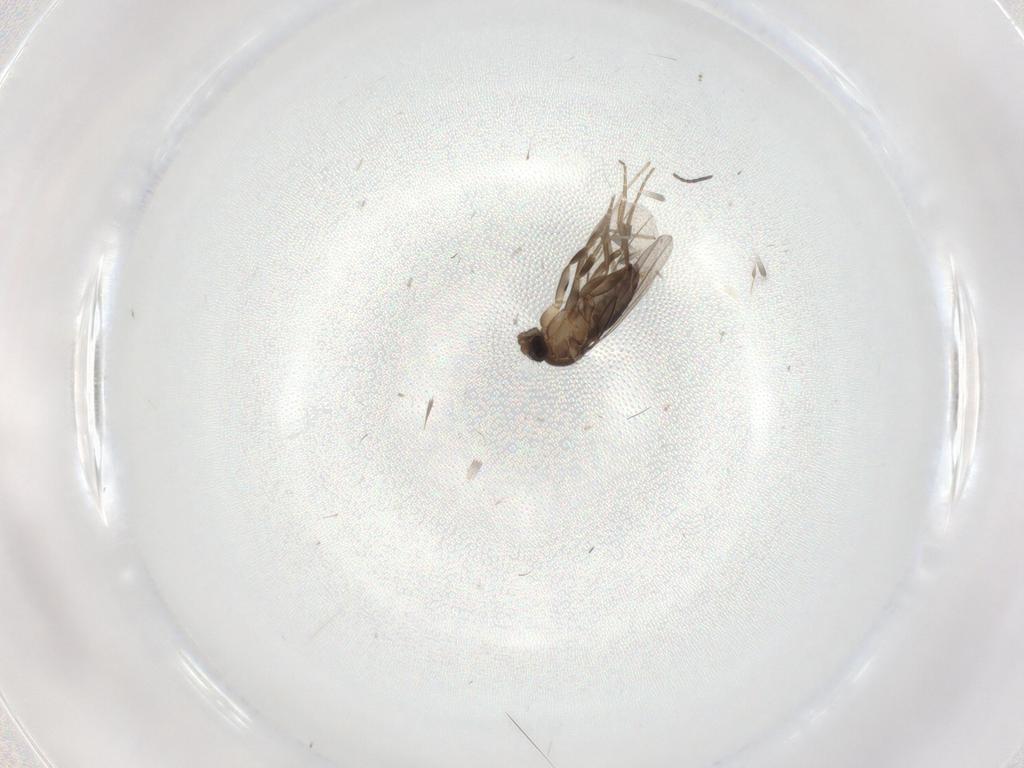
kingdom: Animalia
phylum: Arthropoda
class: Insecta
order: Diptera
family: Phoridae
